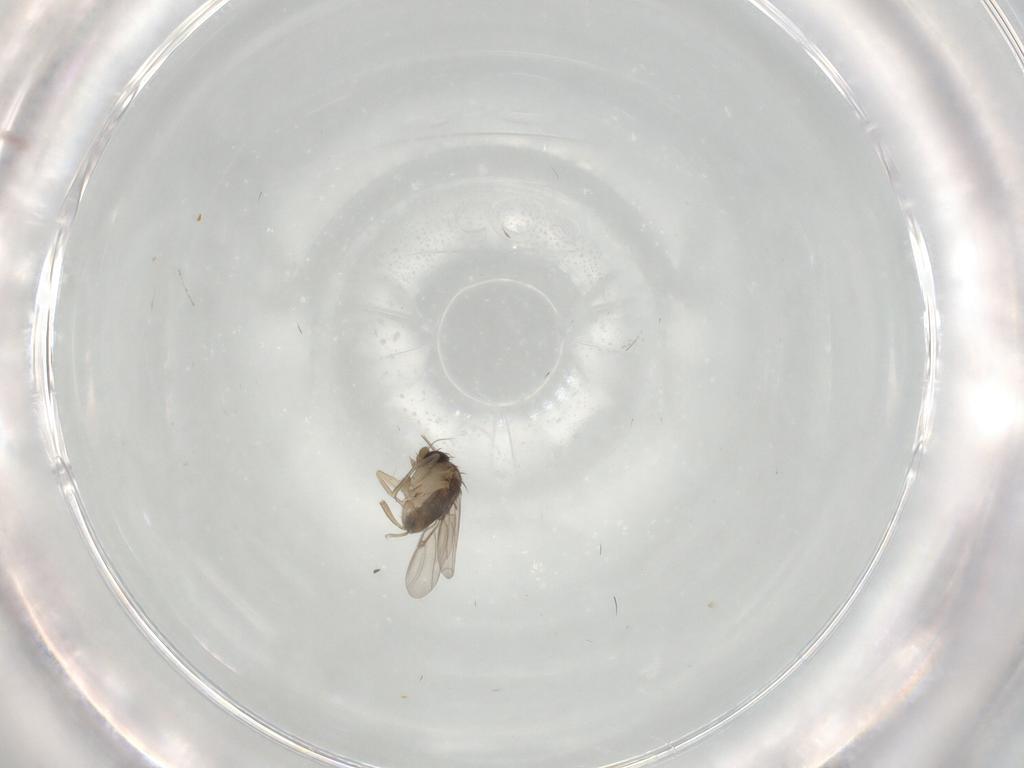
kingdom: Animalia
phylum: Arthropoda
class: Insecta
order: Diptera
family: Phoridae
